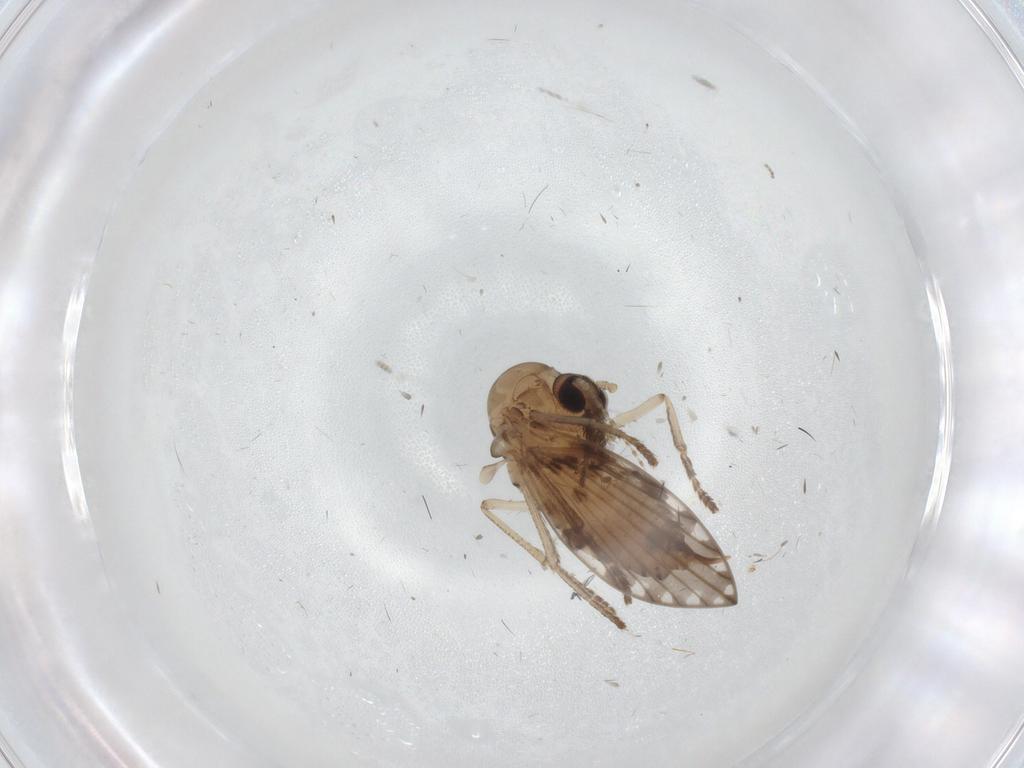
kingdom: Animalia
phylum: Arthropoda
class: Insecta
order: Diptera
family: Psychodidae
